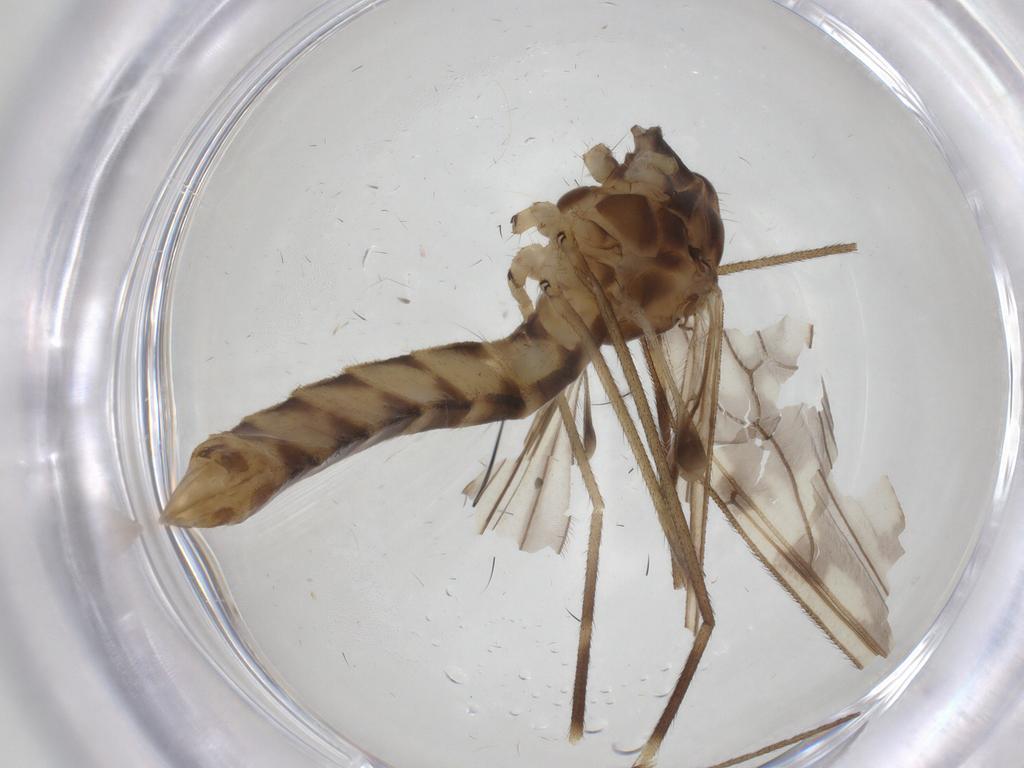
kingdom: Animalia
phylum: Arthropoda
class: Insecta
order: Diptera
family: Limoniidae
